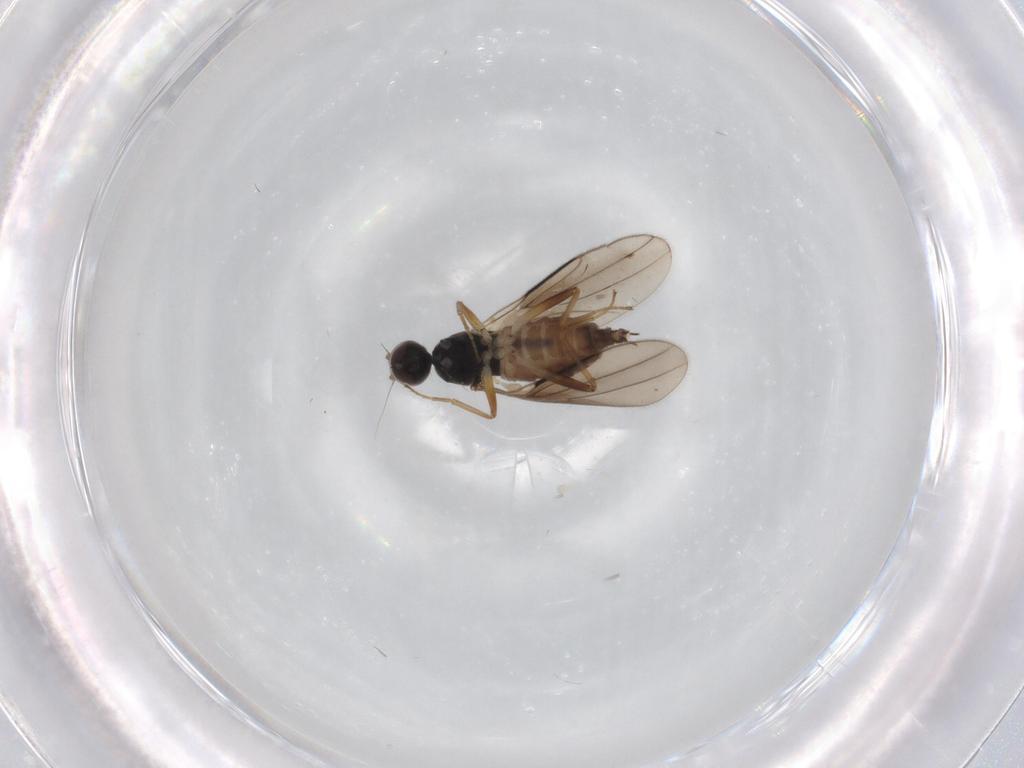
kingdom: Animalia
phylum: Arthropoda
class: Insecta
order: Diptera
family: Hybotidae
